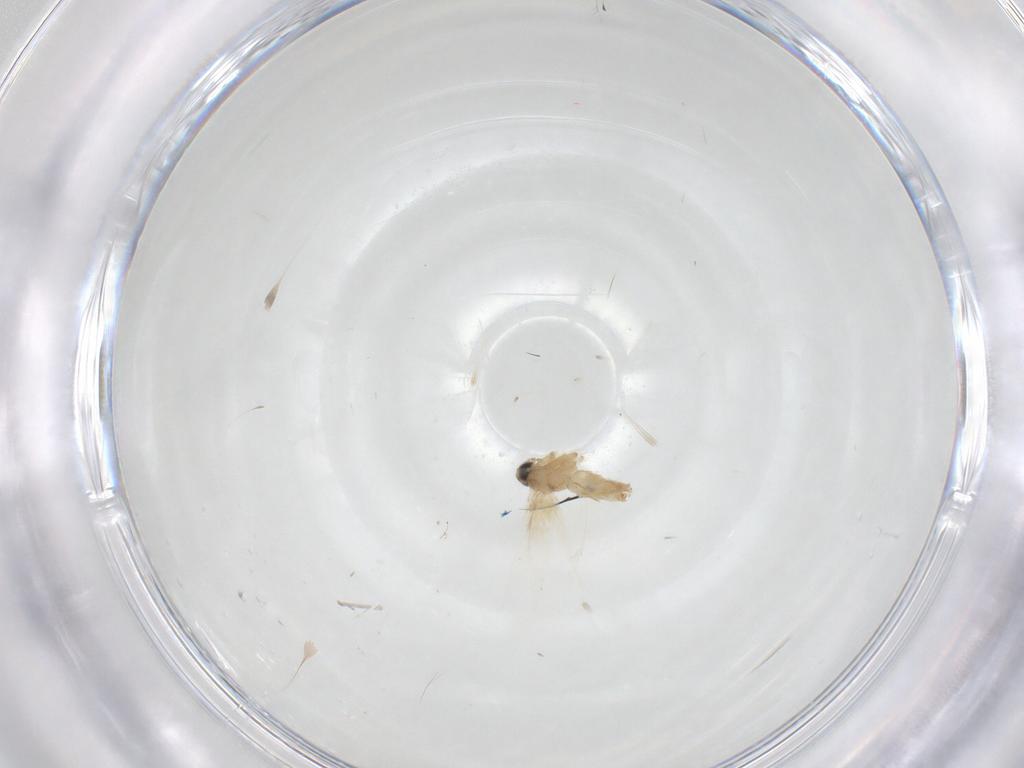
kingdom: Animalia
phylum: Arthropoda
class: Insecta
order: Lepidoptera
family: Crambidae
